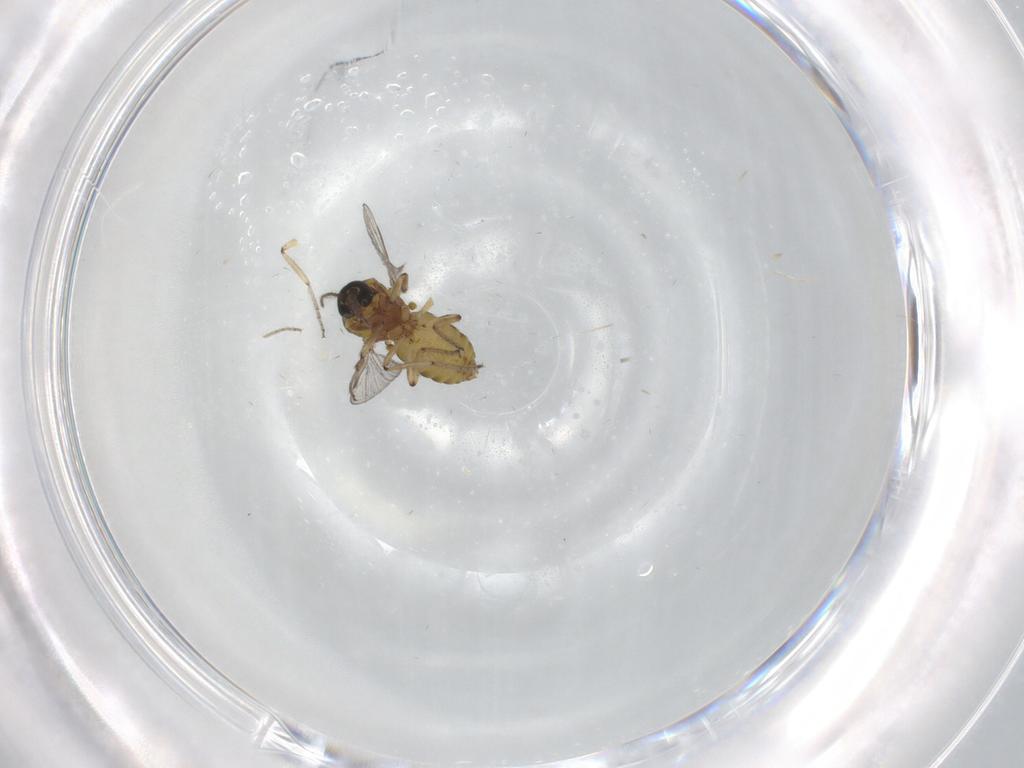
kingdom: Animalia
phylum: Arthropoda
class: Insecta
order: Diptera
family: Ceratopogonidae
